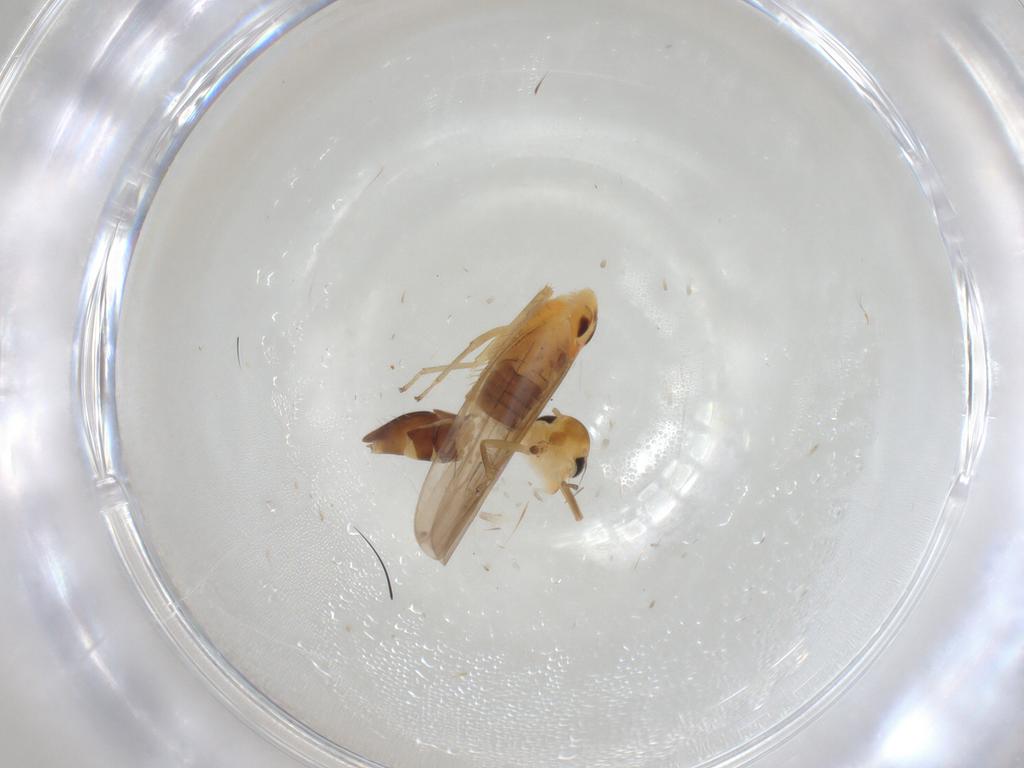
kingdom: Animalia
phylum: Arthropoda
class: Insecta
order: Hemiptera
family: Cicadellidae
